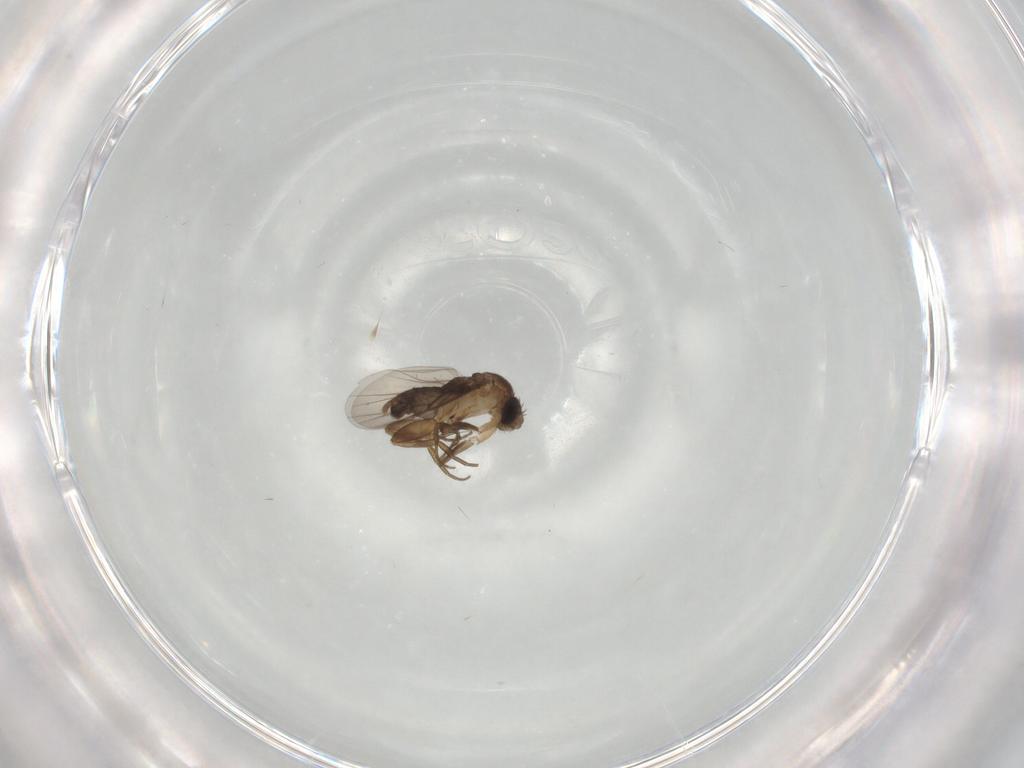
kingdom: Animalia
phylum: Arthropoda
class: Insecta
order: Diptera
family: Phoridae
